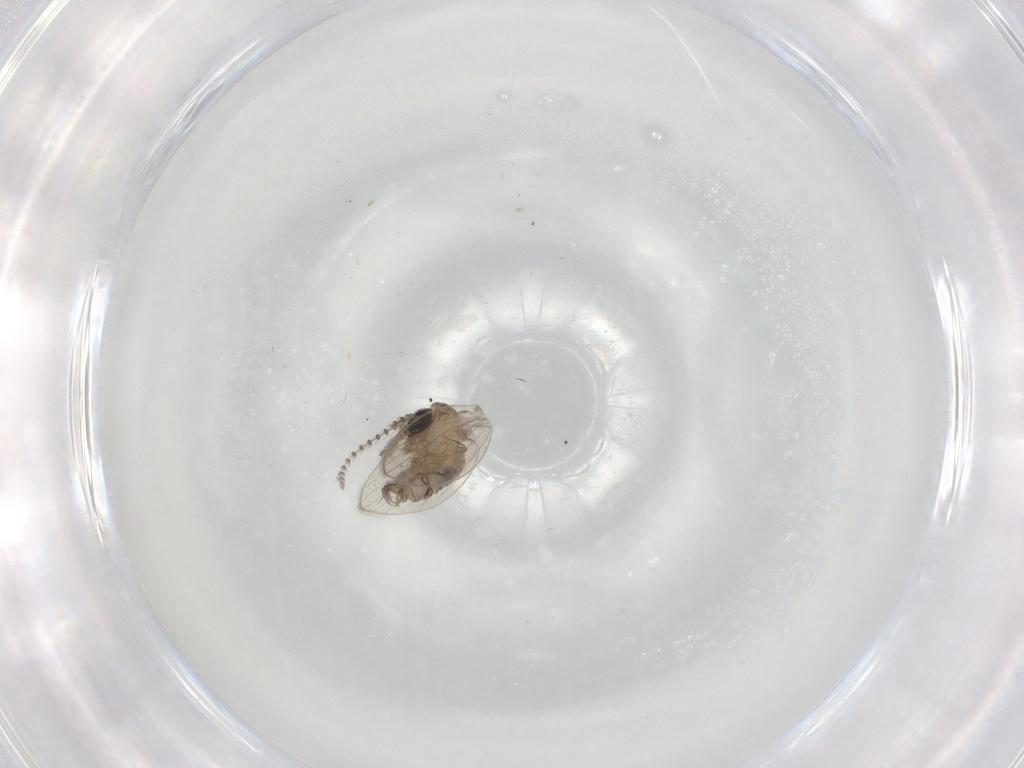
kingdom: Animalia
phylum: Arthropoda
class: Insecta
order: Diptera
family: Psychodidae
